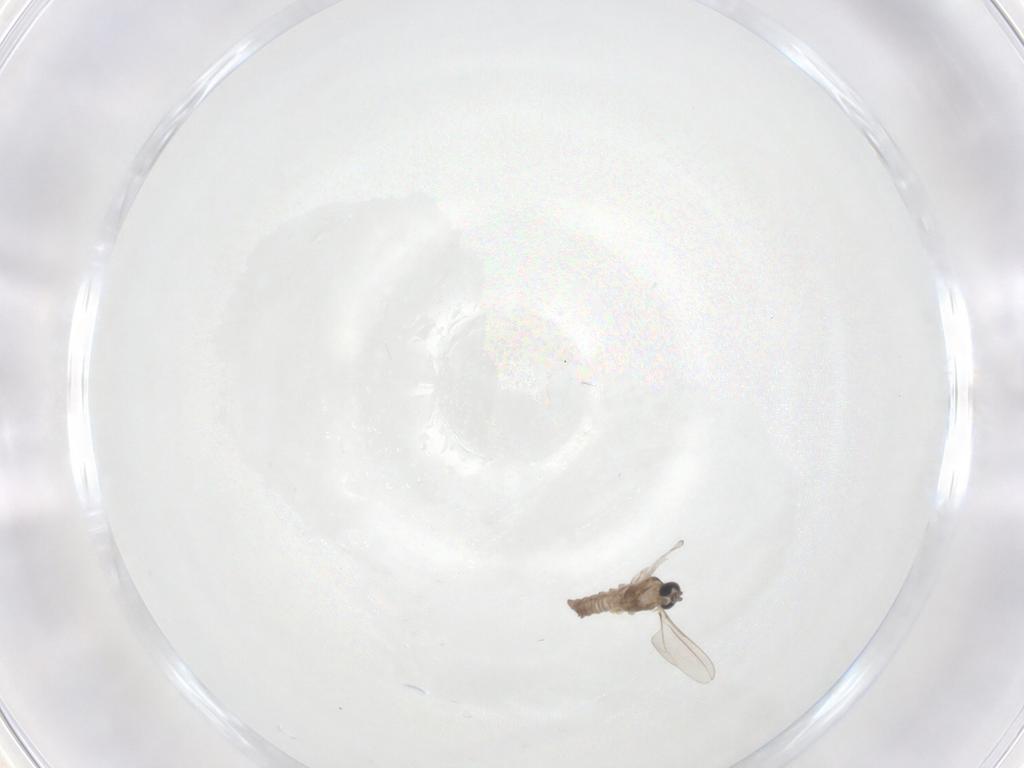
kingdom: Animalia
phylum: Arthropoda
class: Insecta
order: Diptera
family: Cecidomyiidae
